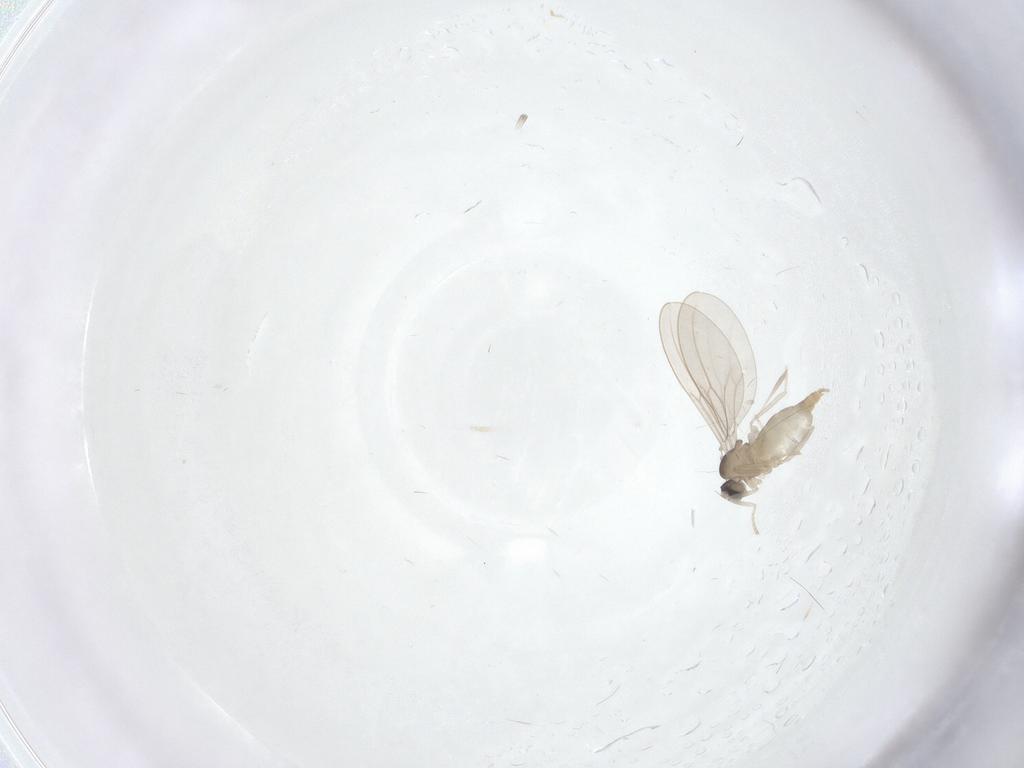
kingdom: Animalia
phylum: Arthropoda
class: Insecta
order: Diptera
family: Cecidomyiidae
